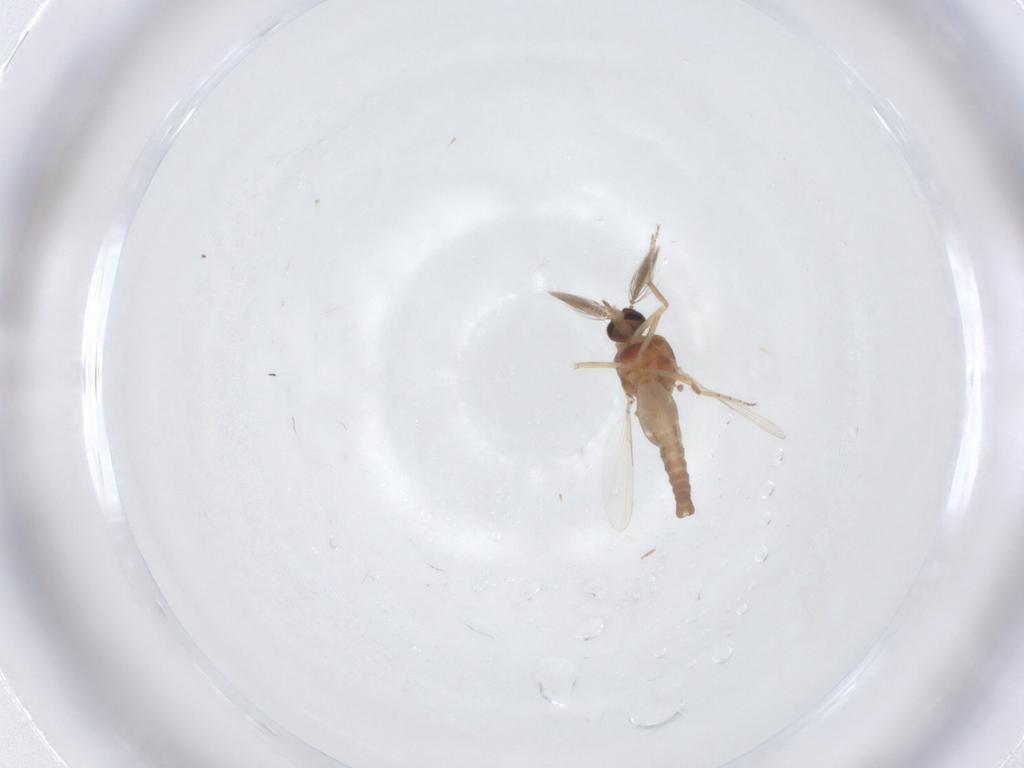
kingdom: Animalia
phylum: Arthropoda
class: Insecta
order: Diptera
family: Ceratopogonidae
